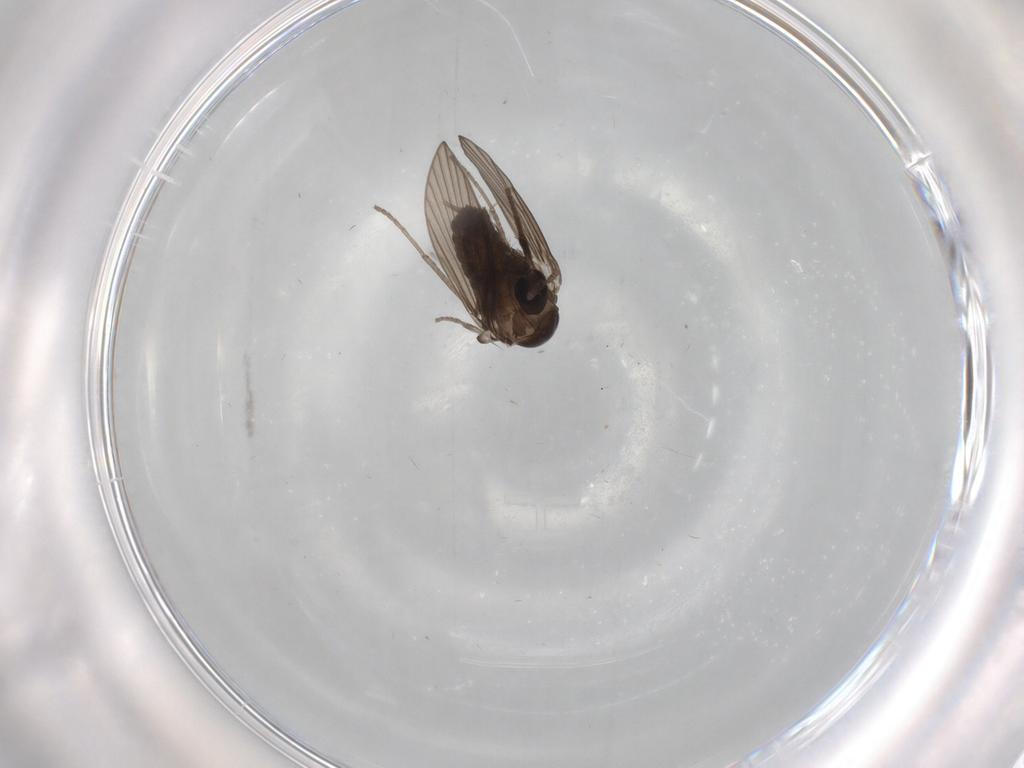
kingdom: Animalia
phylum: Arthropoda
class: Insecta
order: Diptera
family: Sciaridae
